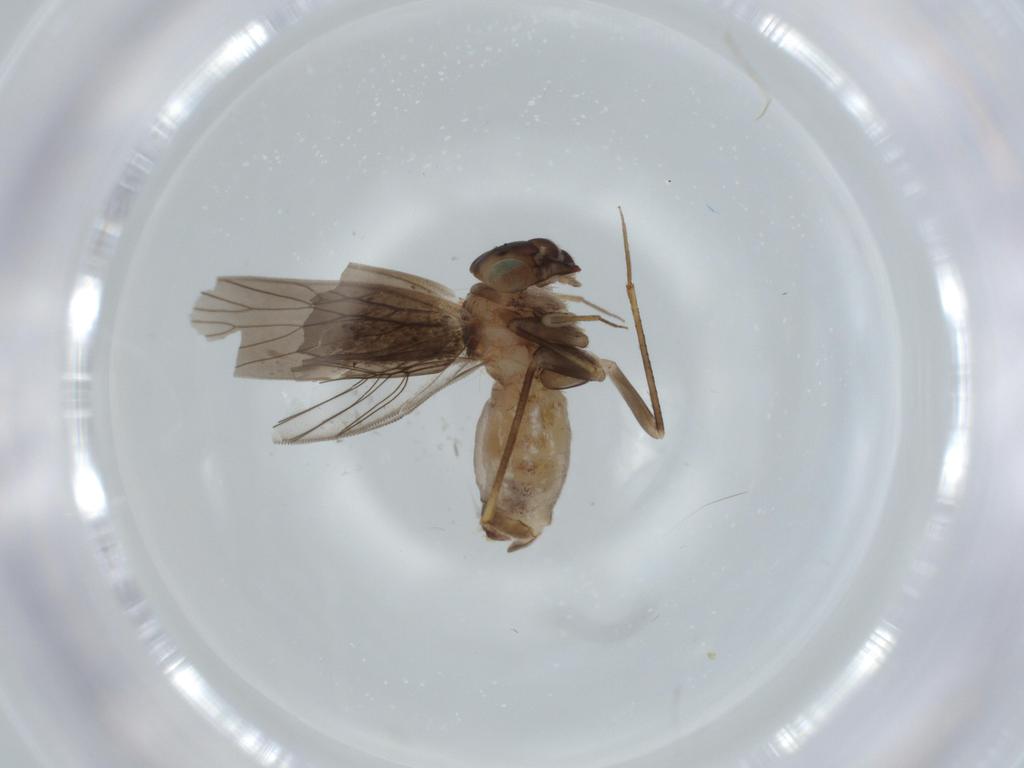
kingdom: Animalia
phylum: Arthropoda
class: Insecta
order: Psocodea
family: Lepidopsocidae
